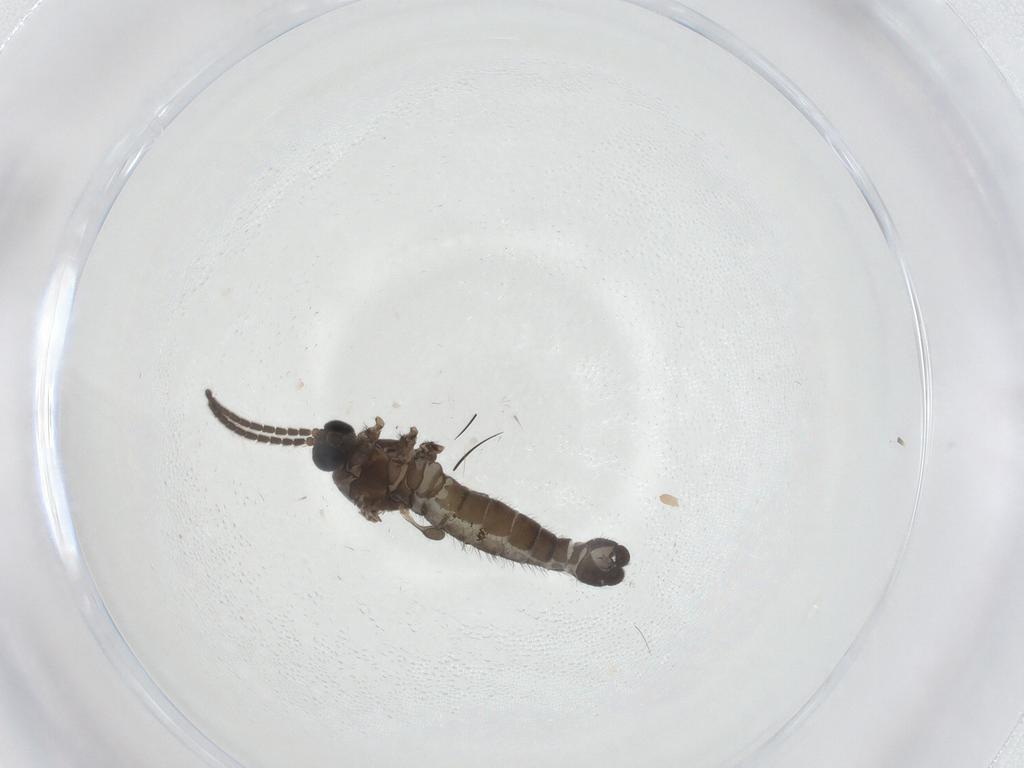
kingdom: Animalia
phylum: Arthropoda
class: Insecta
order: Diptera
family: Sciaridae
